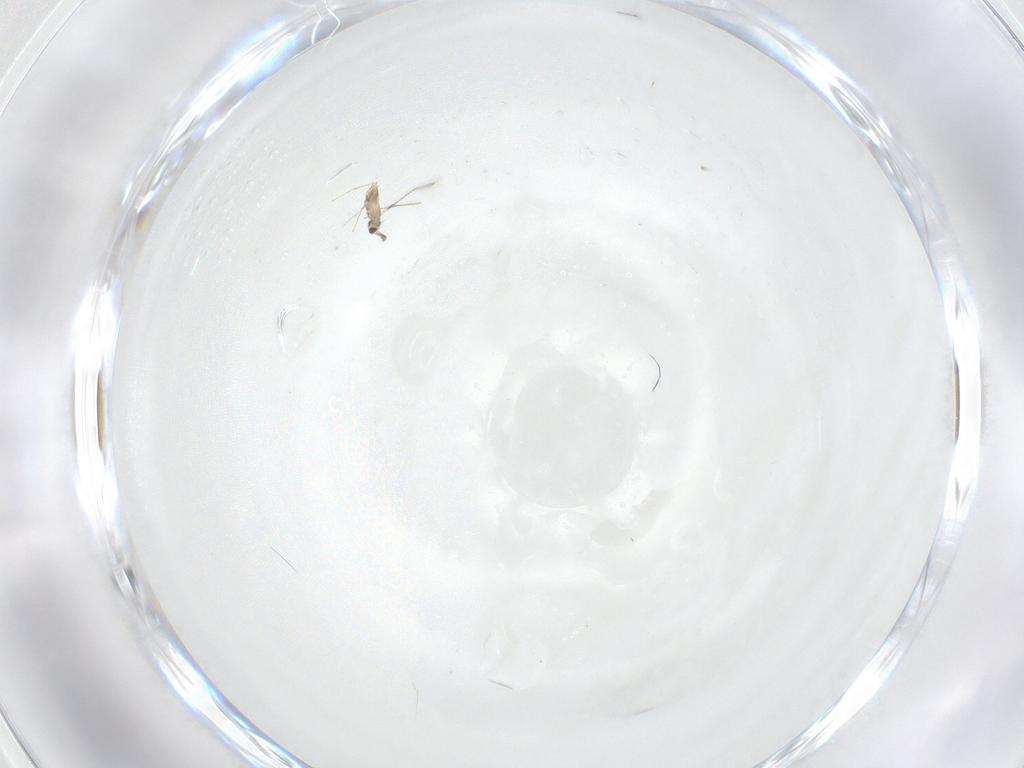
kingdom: Animalia
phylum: Arthropoda
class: Insecta
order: Hymenoptera
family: Mymaridae
